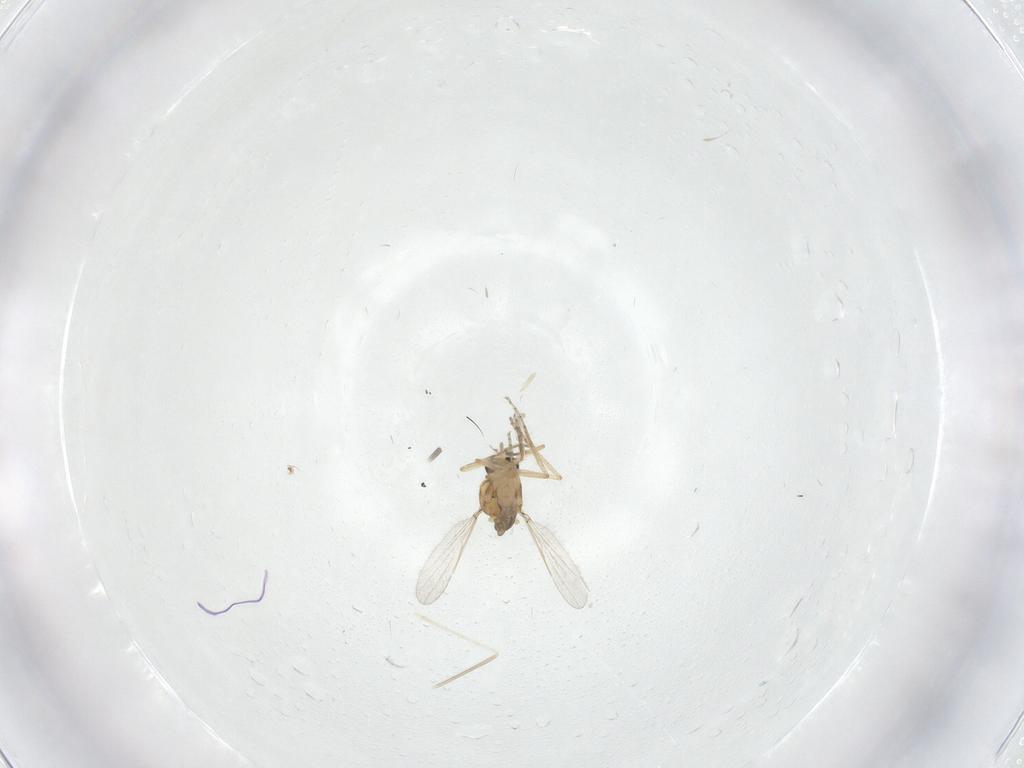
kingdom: Animalia
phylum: Arthropoda
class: Insecta
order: Diptera
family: Ceratopogonidae
